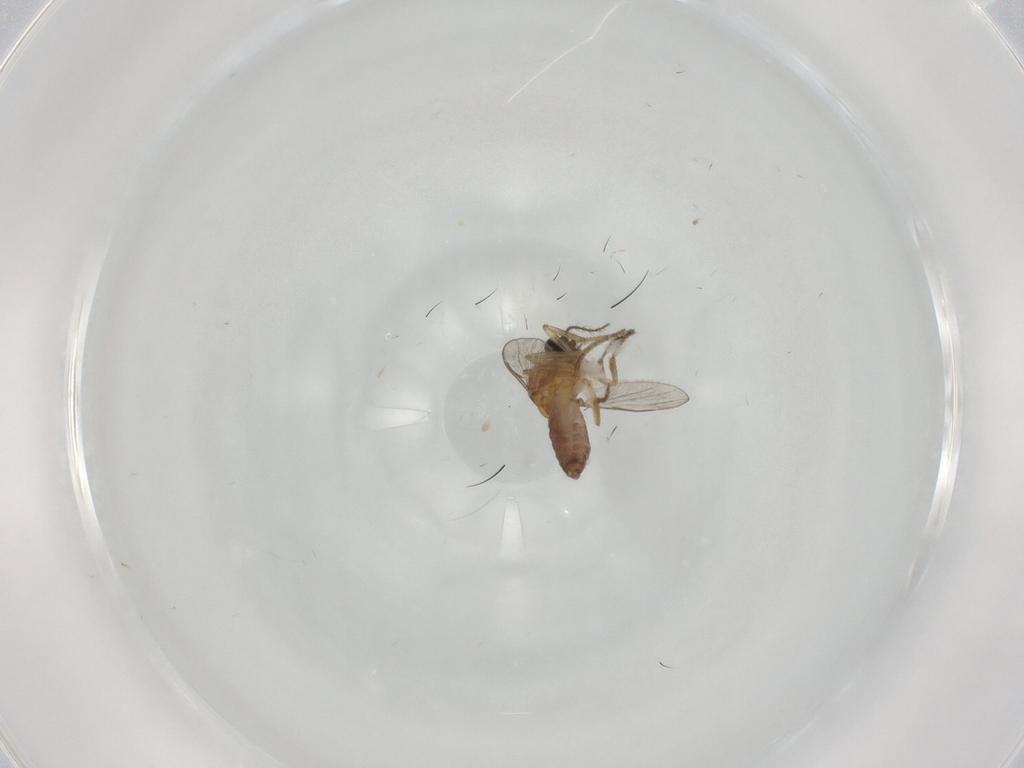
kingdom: Animalia
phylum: Arthropoda
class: Insecta
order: Diptera
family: Ceratopogonidae
